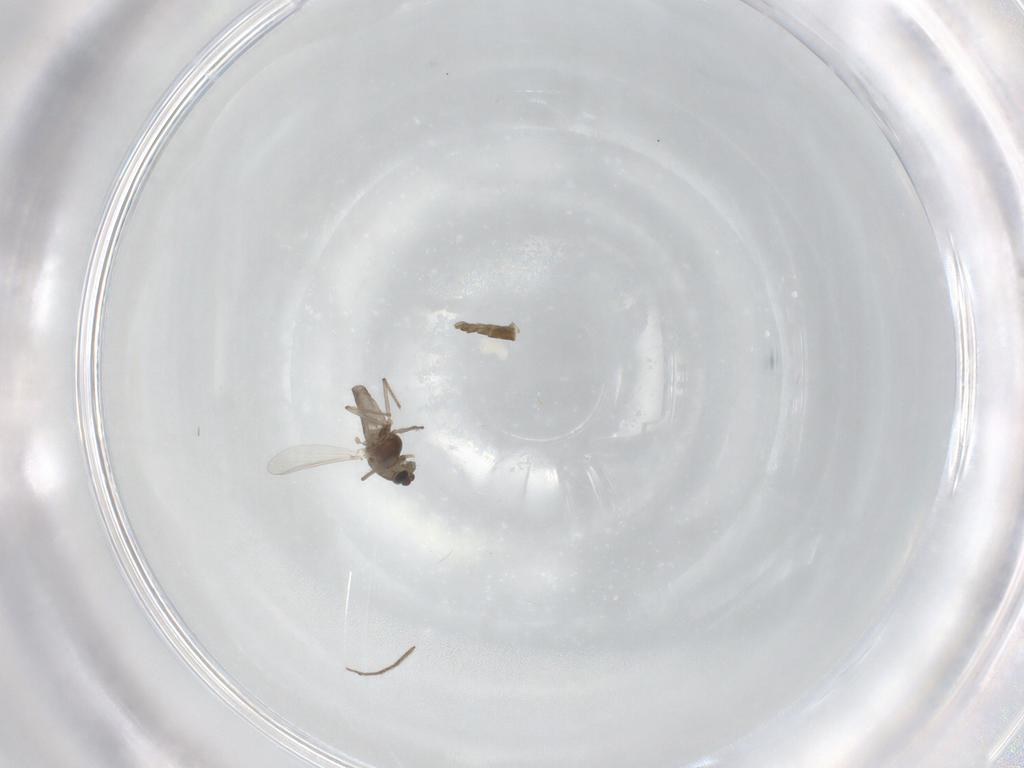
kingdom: Animalia
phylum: Arthropoda
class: Insecta
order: Diptera
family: Chironomidae
